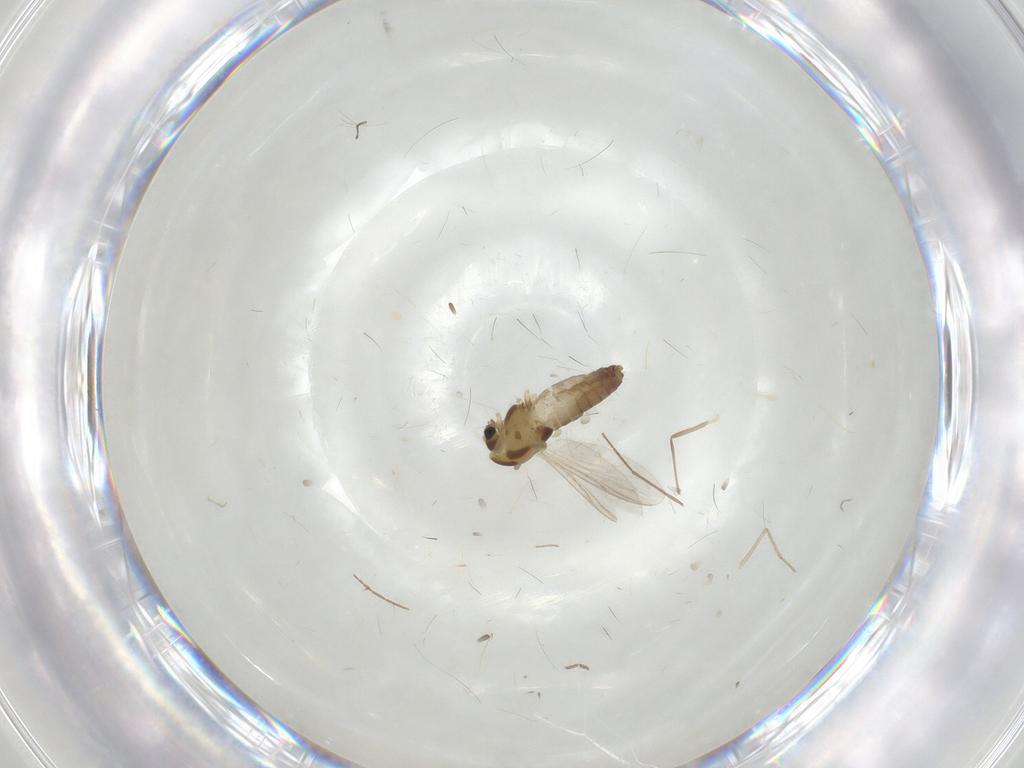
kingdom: Animalia
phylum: Arthropoda
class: Insecta
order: Diptera
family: Chironomidae
